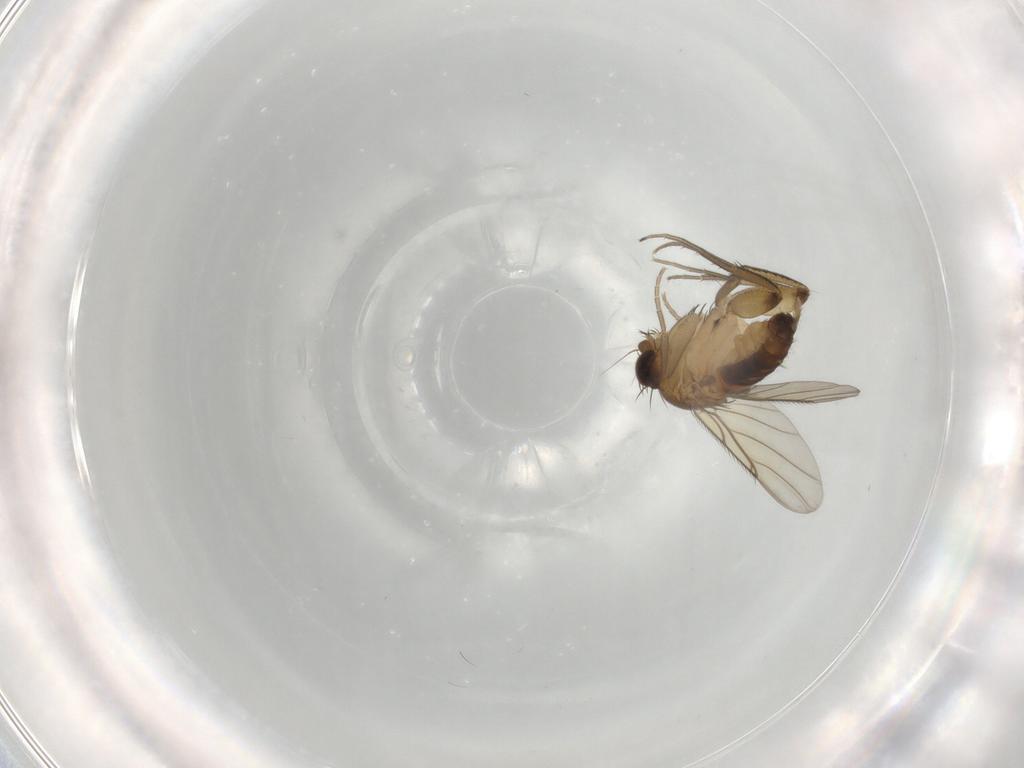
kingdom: Animalia
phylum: Arthropoda
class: Insecta
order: Diptera
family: Phoridae
